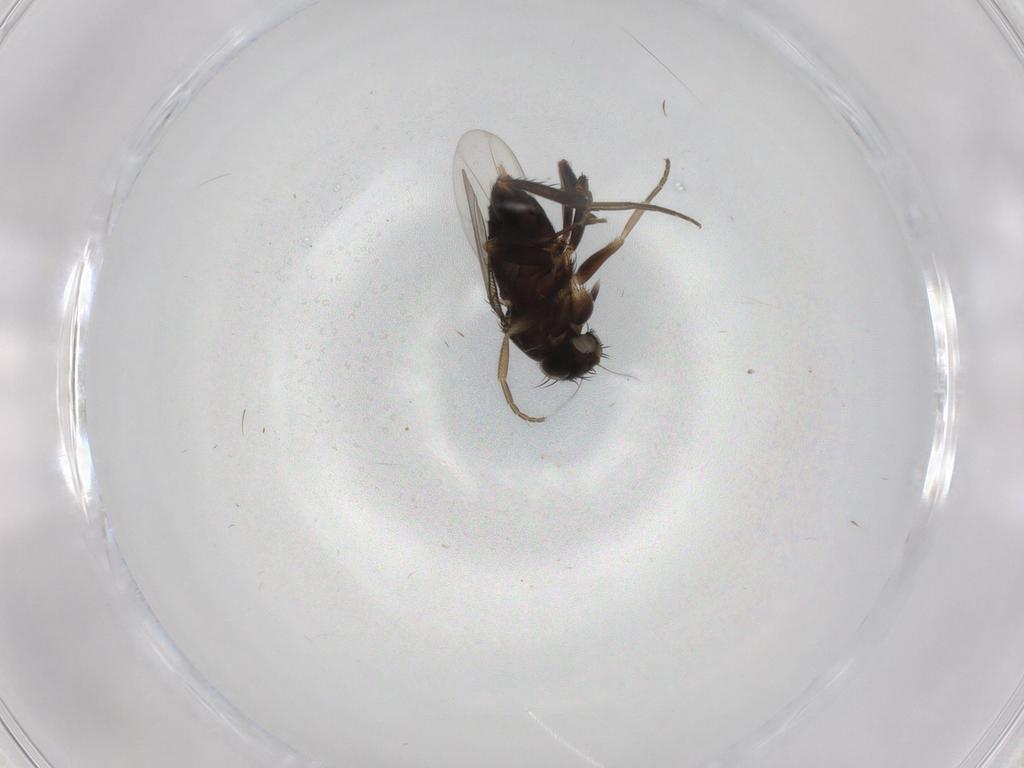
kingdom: Animalia
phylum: Arthropoda
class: Insecta
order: Diptera
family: Phoridae
